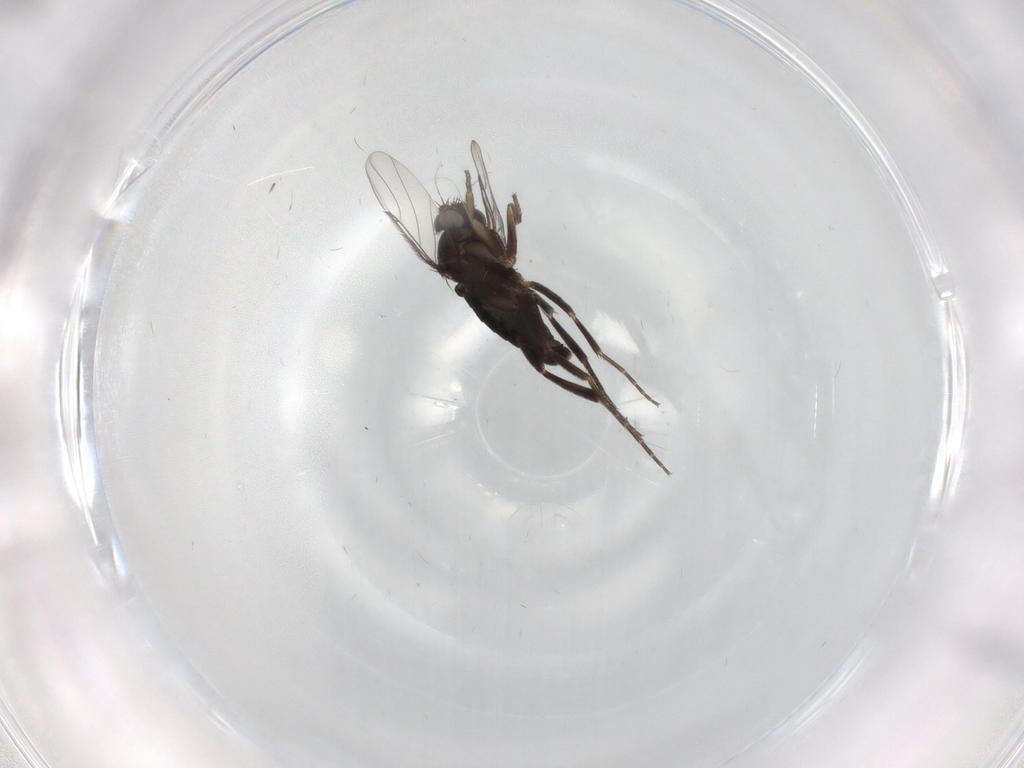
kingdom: Animalia
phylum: Arthropoda
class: Insecta
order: Diptera
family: Phoridae
